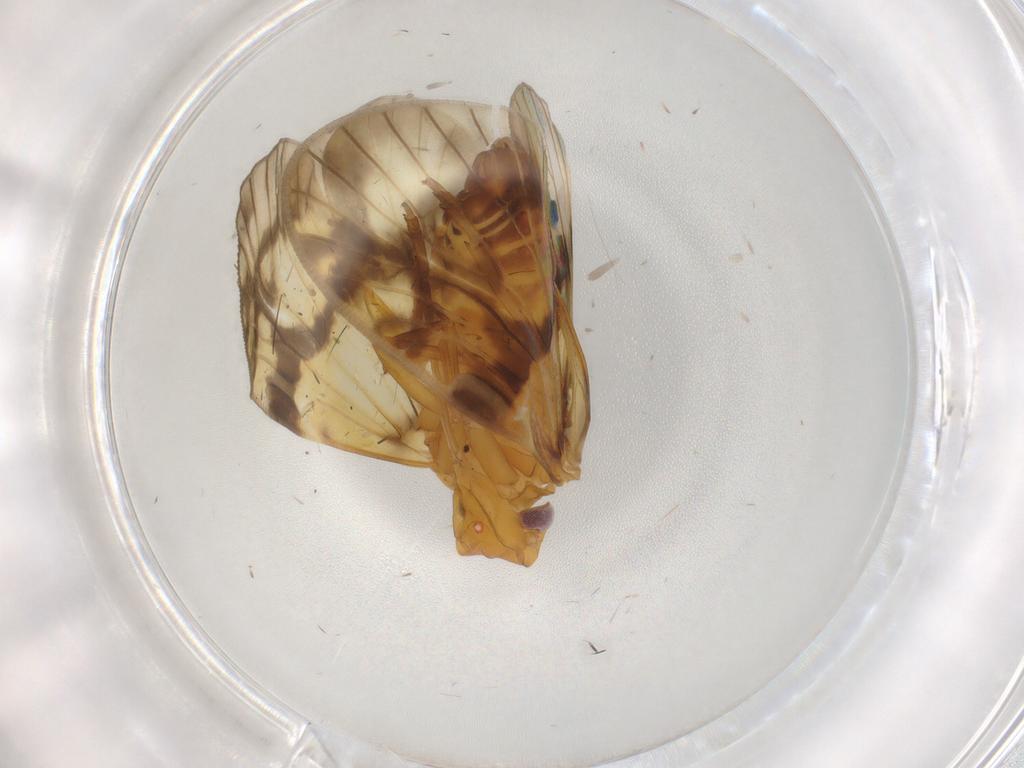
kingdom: Animalia
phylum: Arthropoda
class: Insecta
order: Hemiptera
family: Cixiidae
